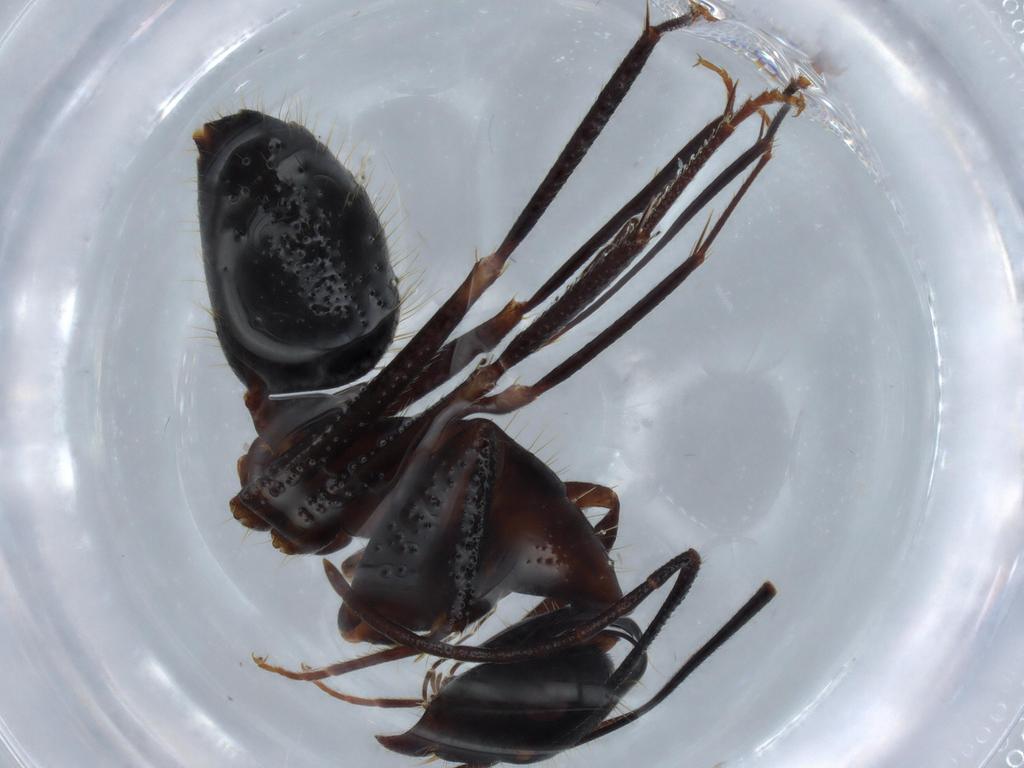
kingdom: Animalia
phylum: Arthropoda
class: Insecta
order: Hymenoptera
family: Formicidae
